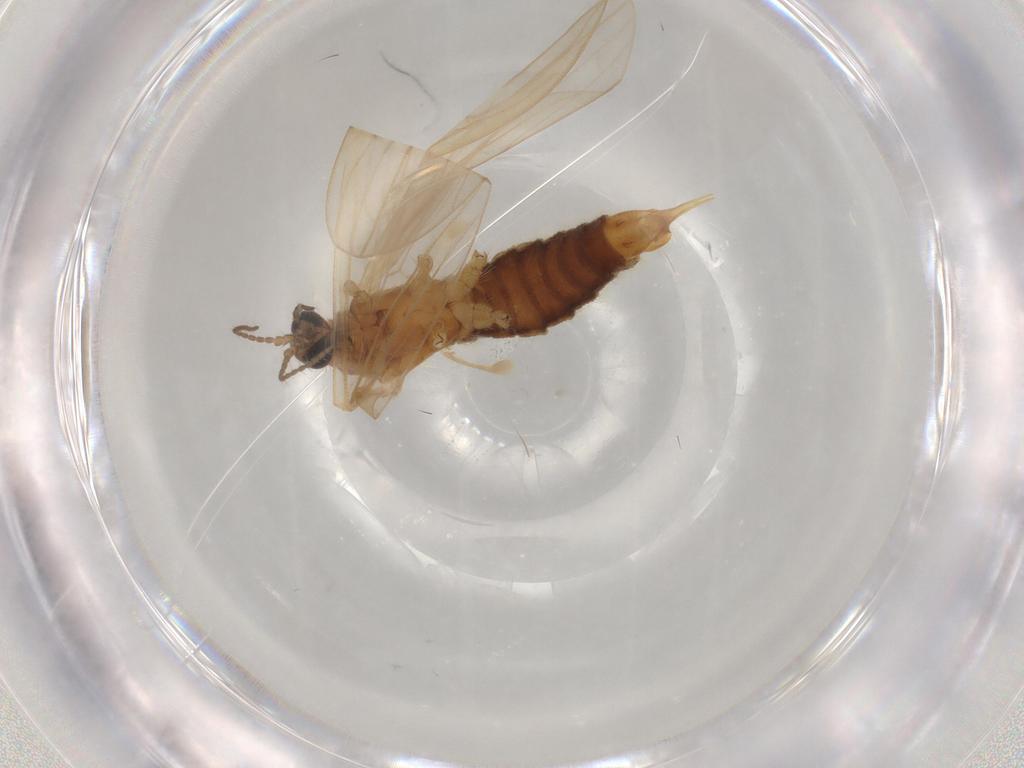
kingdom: Animalia
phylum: Arthropoda
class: Insecta
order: Diptera
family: Limoniidae
